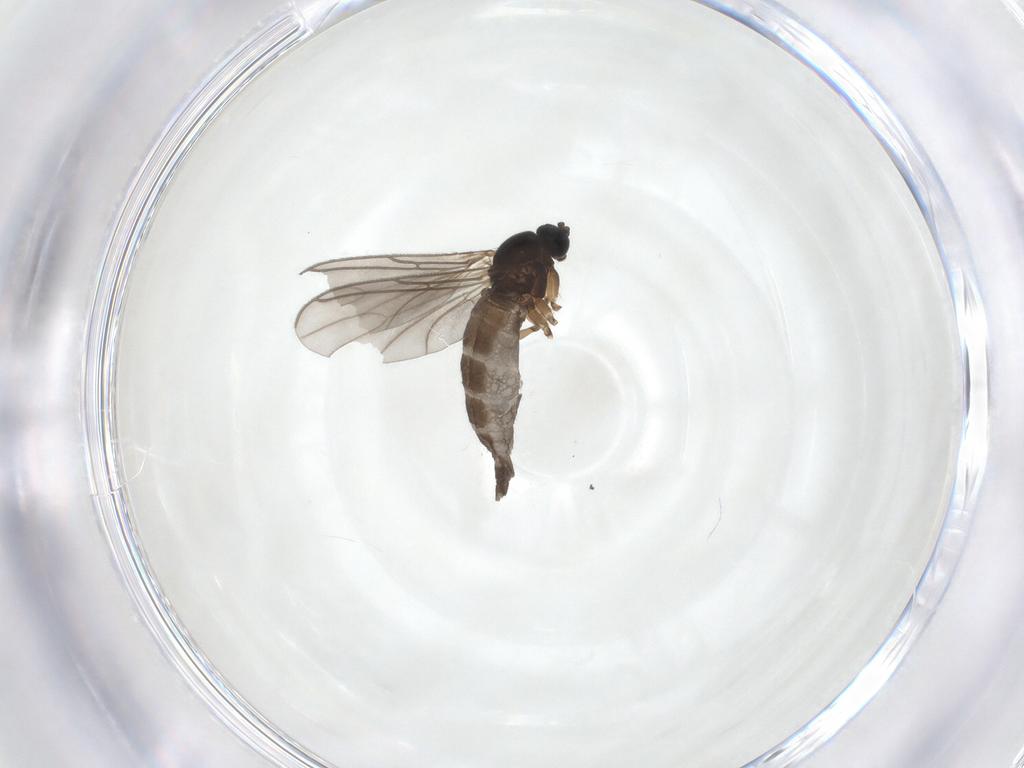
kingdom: Animalia
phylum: Arthropoda
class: Insecta
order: Diptera
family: Sciaridae
